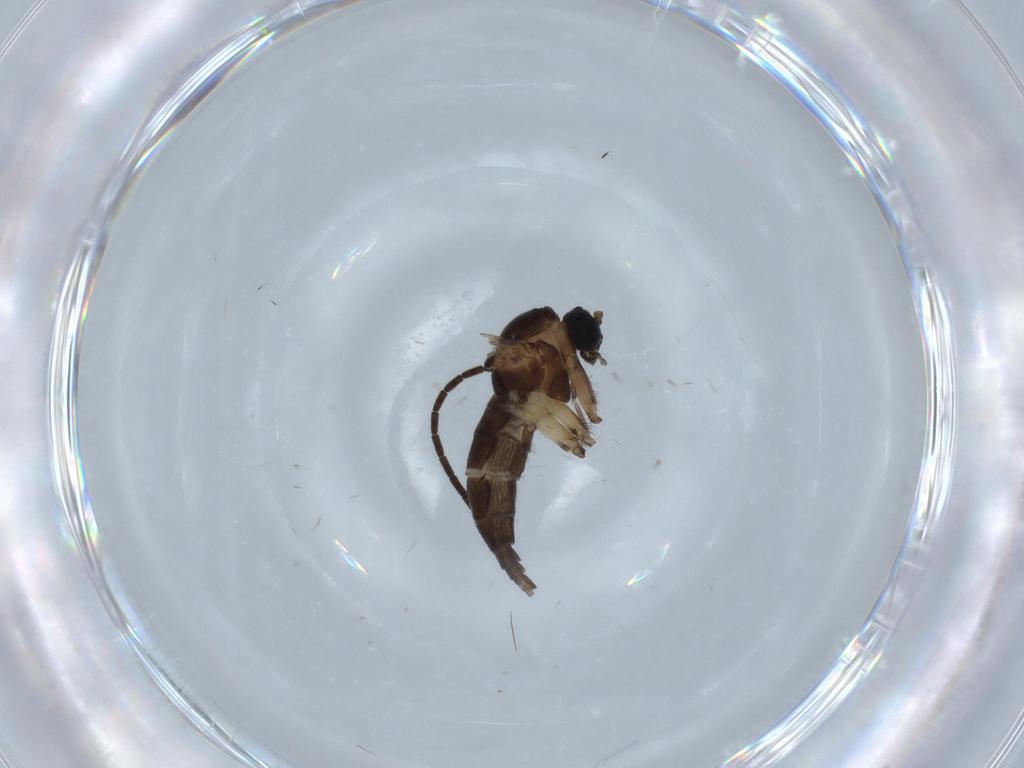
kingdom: Animalia
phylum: Arthropoda
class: Insecta
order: Diptera
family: Sciaridae
